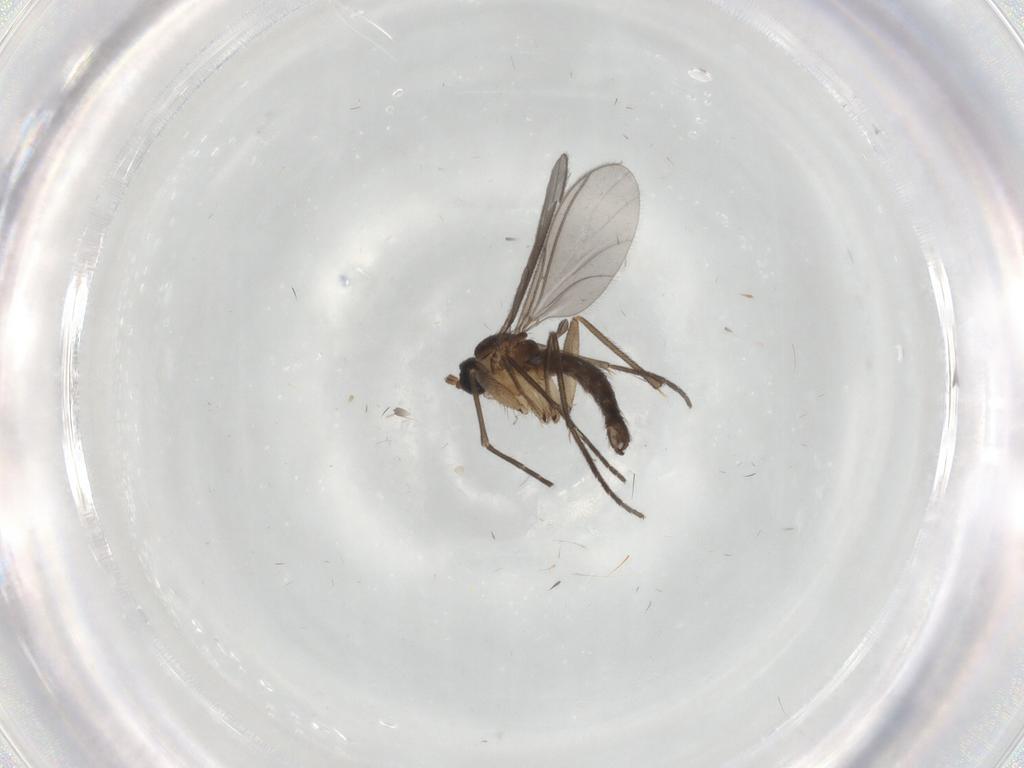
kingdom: Animalia
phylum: Arthropoda
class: Insecta
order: Diptera
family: Sciaridae
